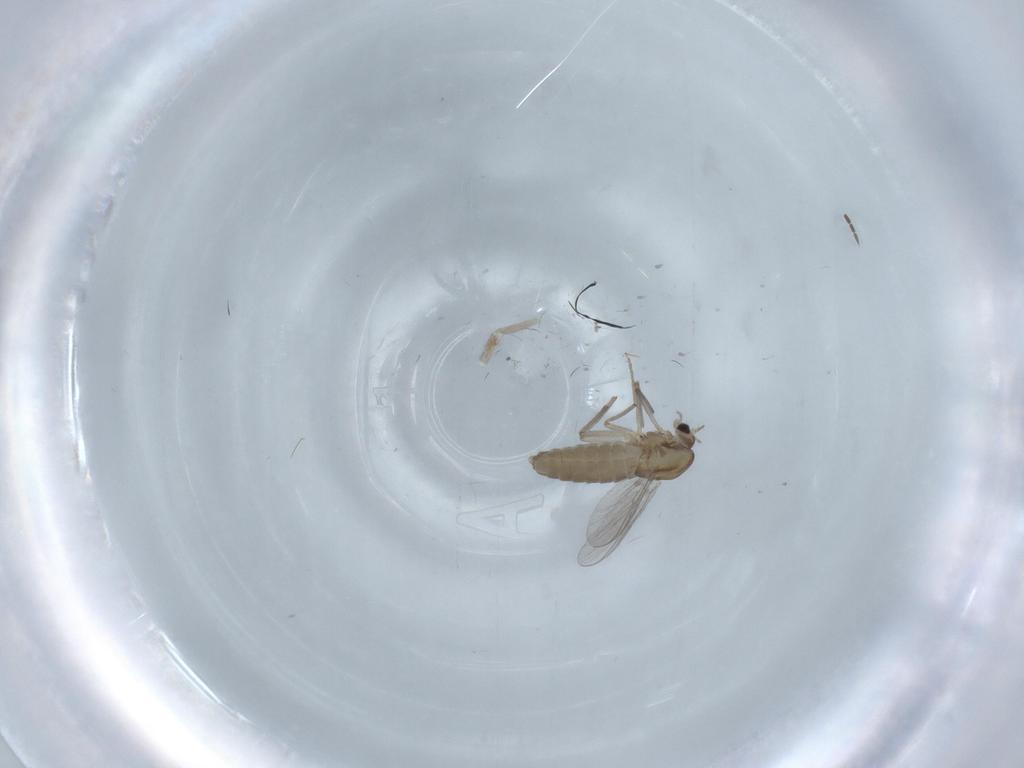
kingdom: Animalia
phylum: Arthropoda
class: Insecta
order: Diptera
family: Chironomidae
